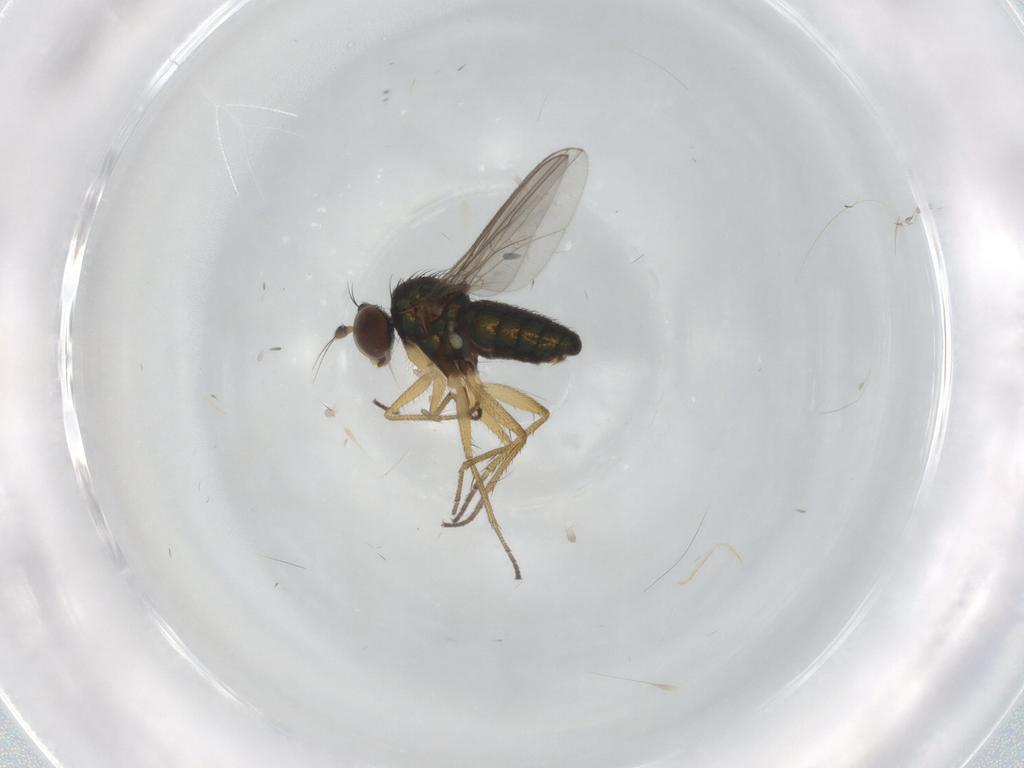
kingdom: Animalia
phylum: Arthropoda
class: Insecta
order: Diptera
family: Dolichopodidae
